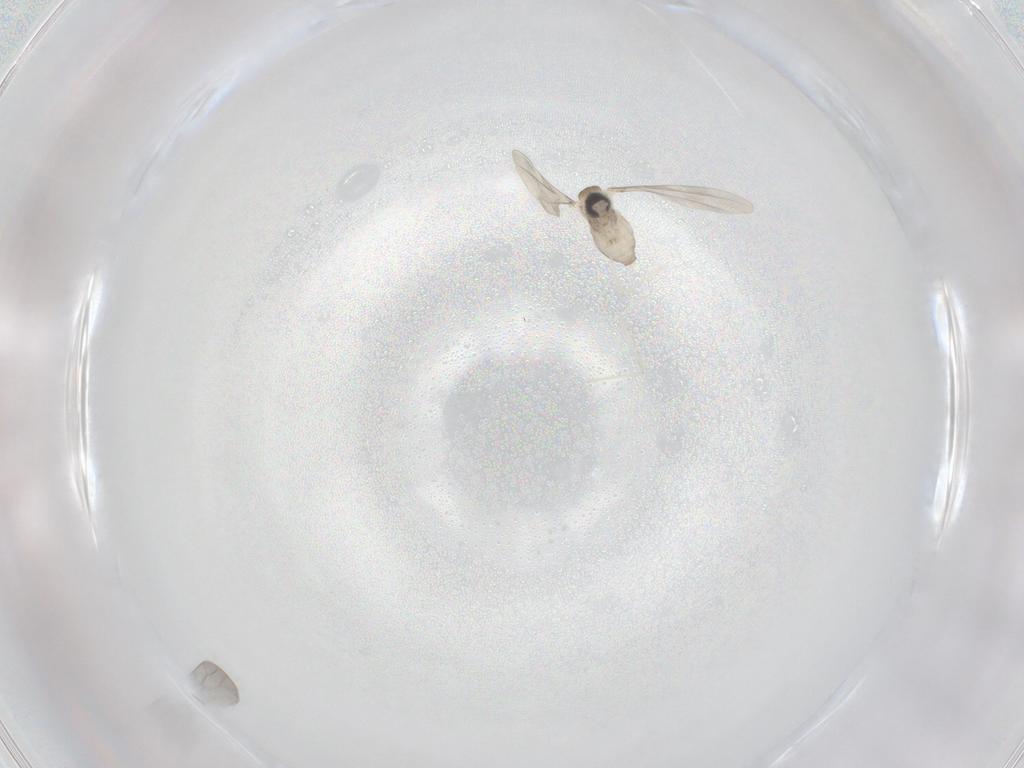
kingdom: Animalia
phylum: Arthropoda
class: Insecta
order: Diptera
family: Cecidomyiidae
